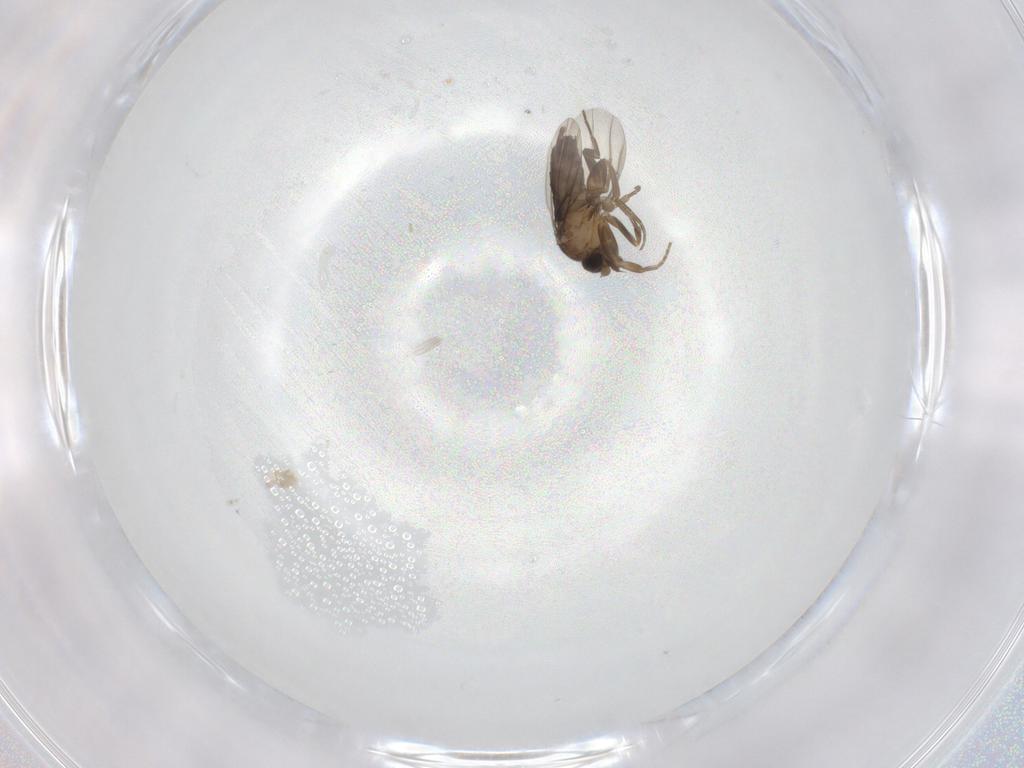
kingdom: Animalia
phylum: Arthropoda
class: Insecta
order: Diptera
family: Phoridae
